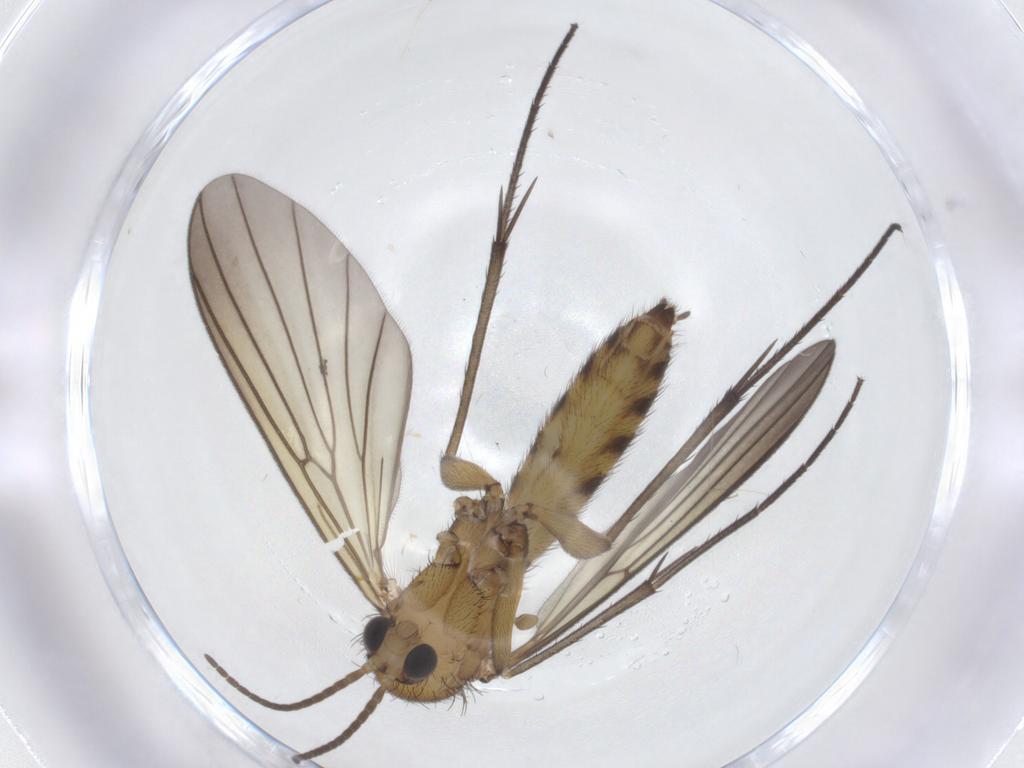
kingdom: Animalia
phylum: Arthropoda
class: Insecta
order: Diptera
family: Mycetophilidae
